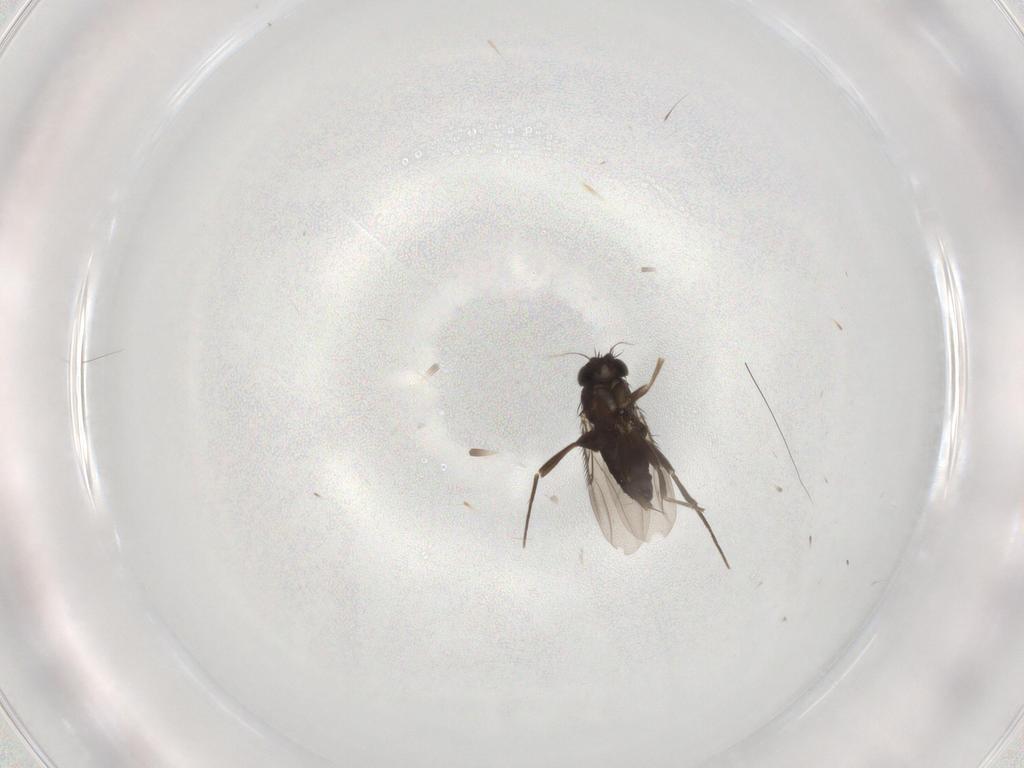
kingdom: Animalia
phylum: Arthropoda
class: Insecta
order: Diptera
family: Phoridae
